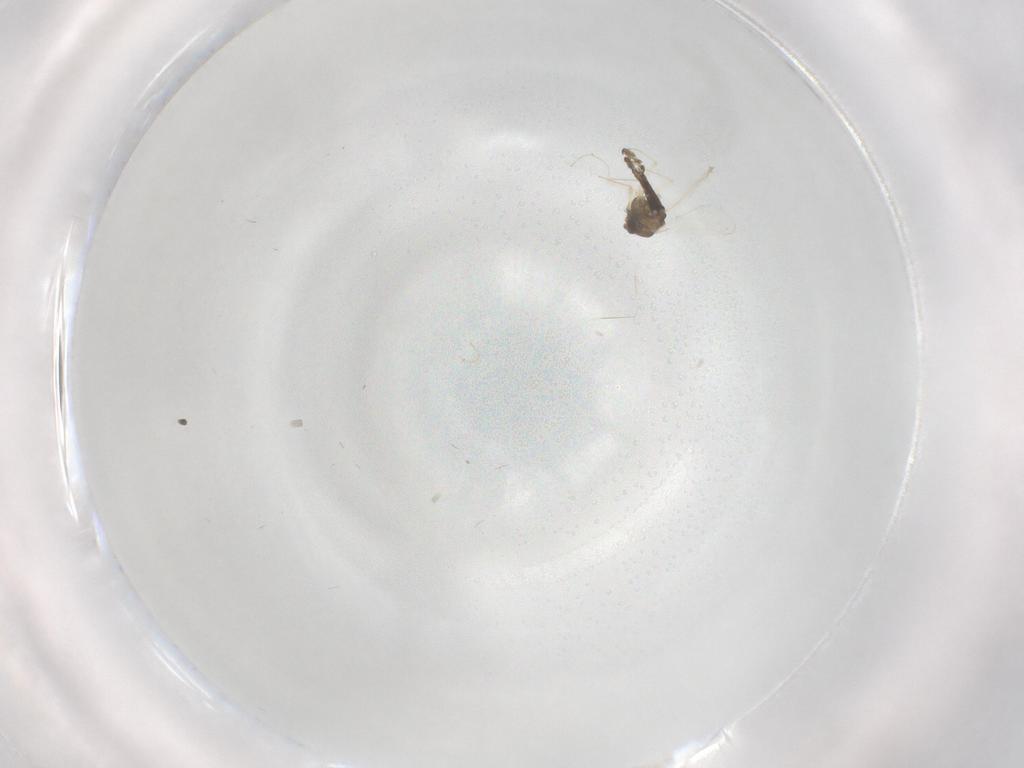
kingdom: Animalia
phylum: Arthropoda
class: Insecta
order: Diptera
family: Chironomidae
